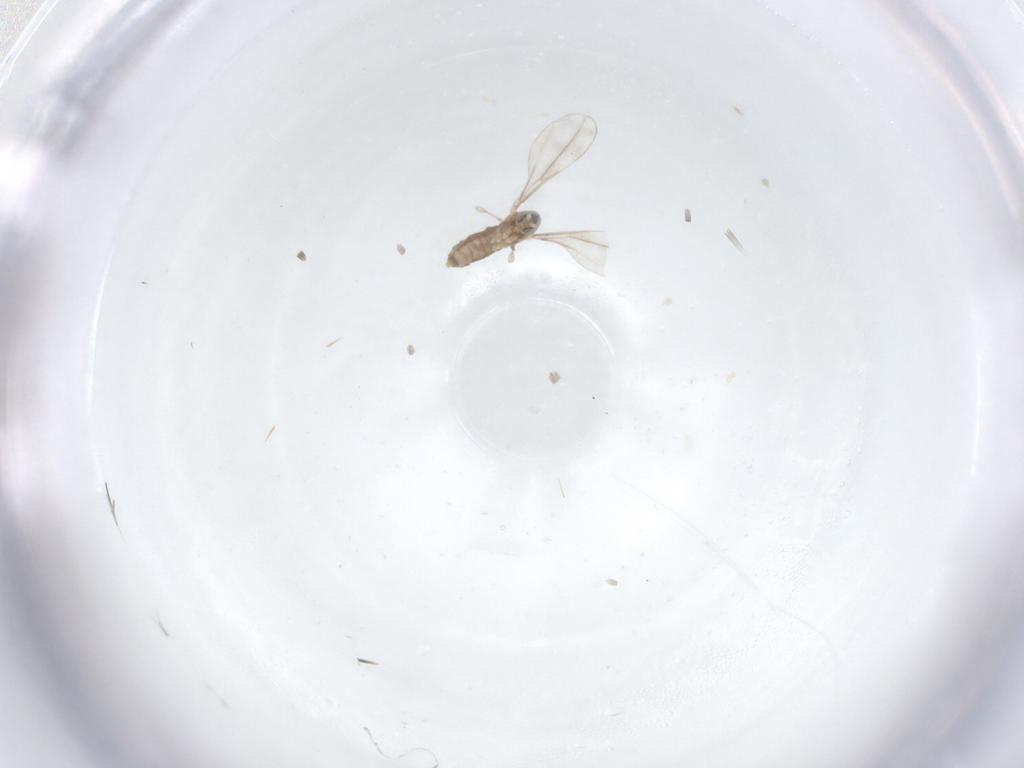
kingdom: Animalia
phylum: Arthropoda
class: Insecta
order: Diptera
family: Cecidomyiidae
